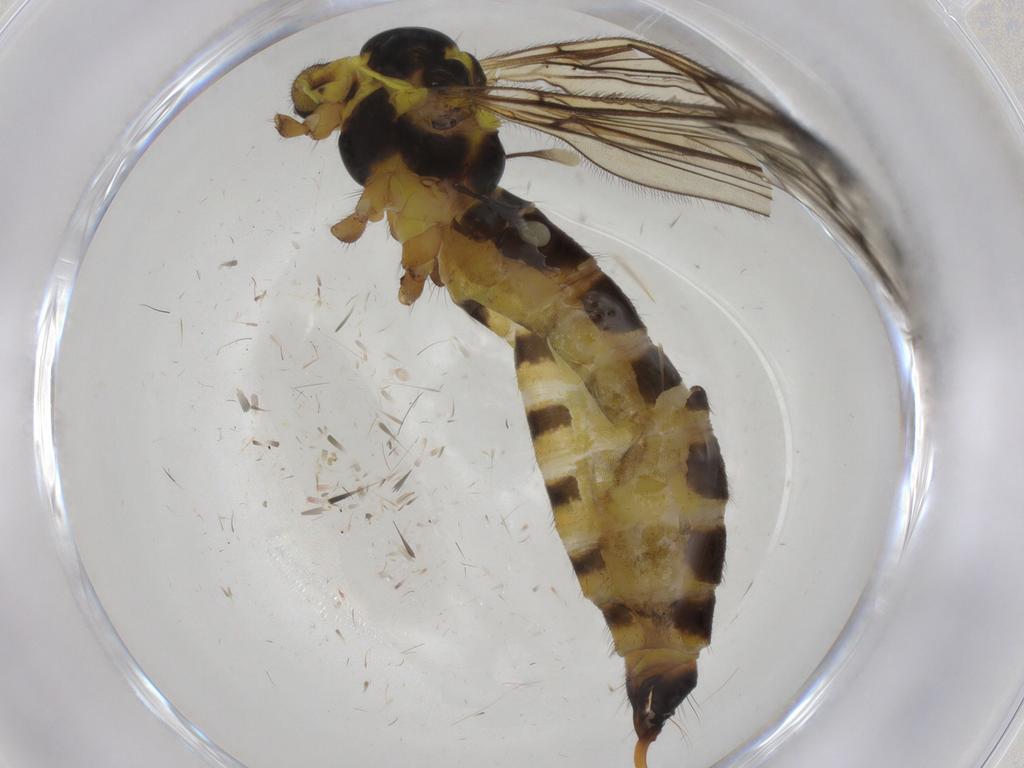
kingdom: Animalia
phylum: Arthropoda
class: Insecta
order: Diptera
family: Limoniidae
